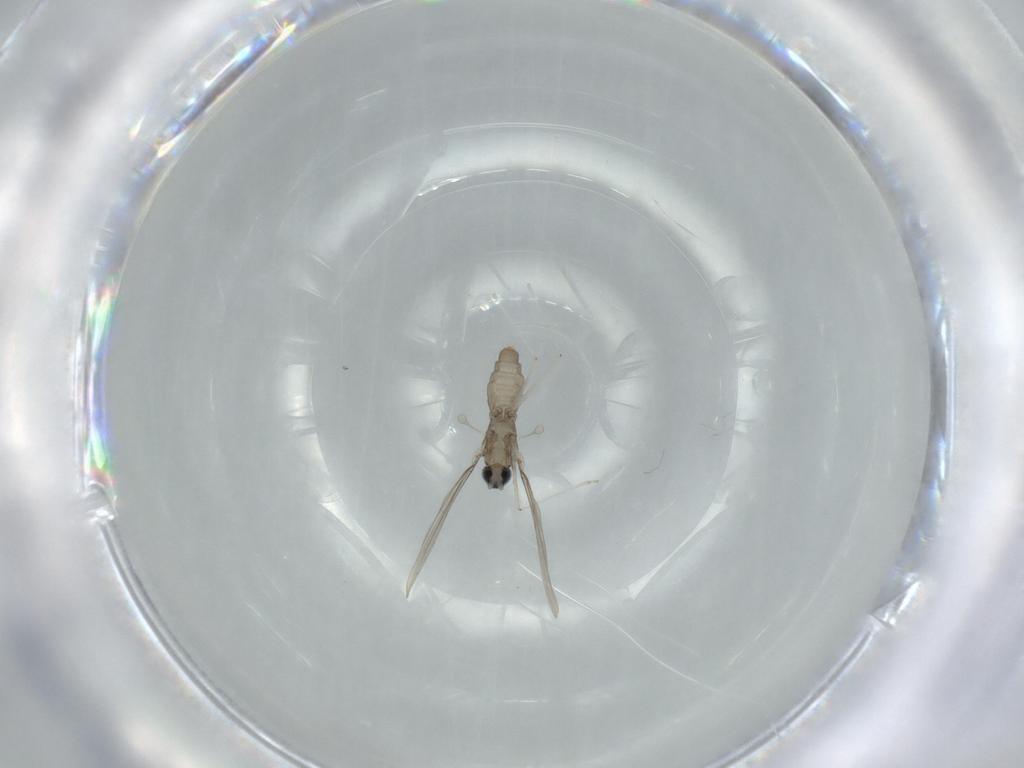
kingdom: Animalia
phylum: Arthropoda
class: Insecta
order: Diptera
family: Cecidomyiidae
